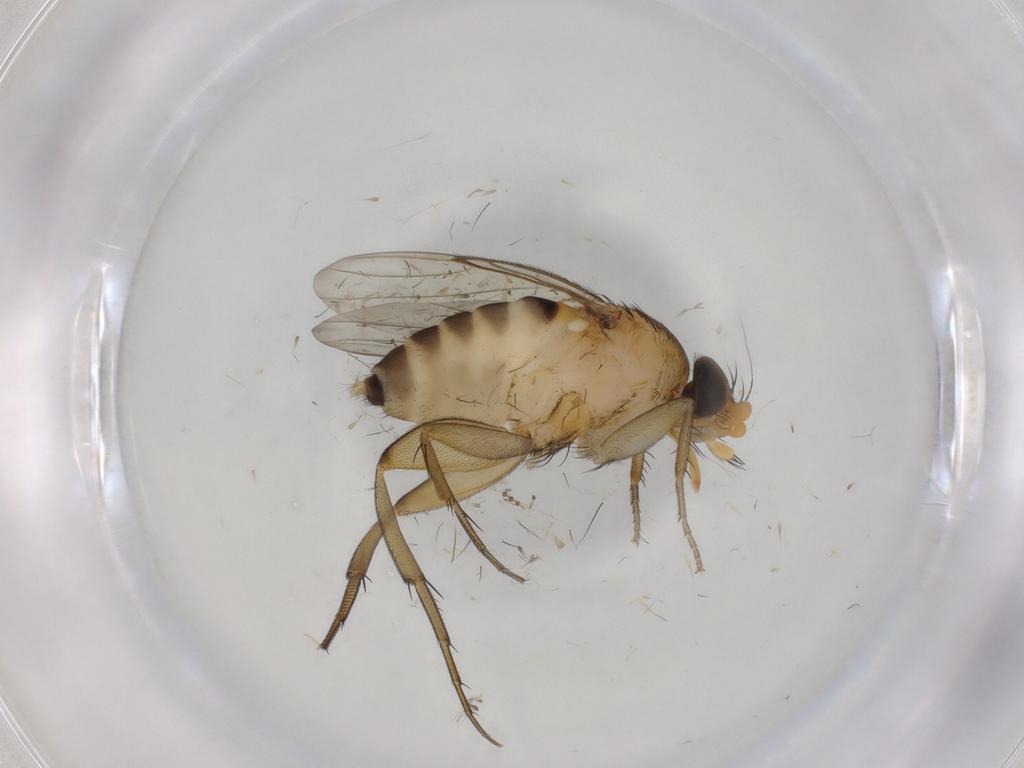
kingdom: Animalia
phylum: Arthropoda
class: Insecta
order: Diptera
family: Phoridae
